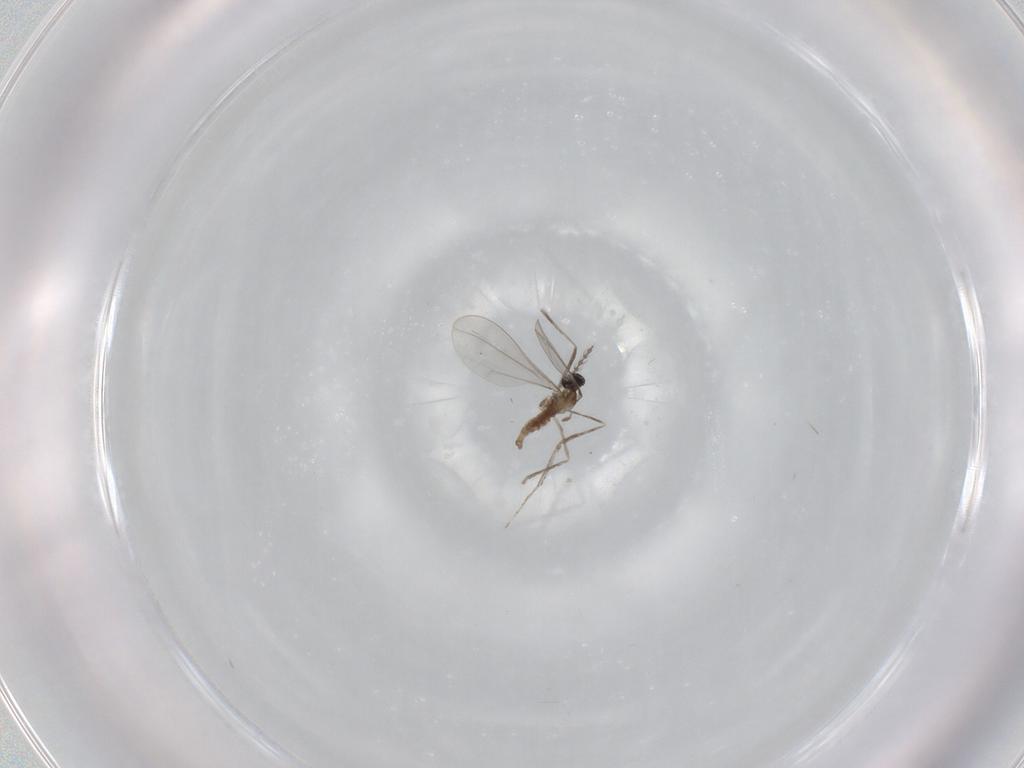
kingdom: Animalia
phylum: Arthropoda
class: Insecta
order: Diptera
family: Cecidomyiidae
